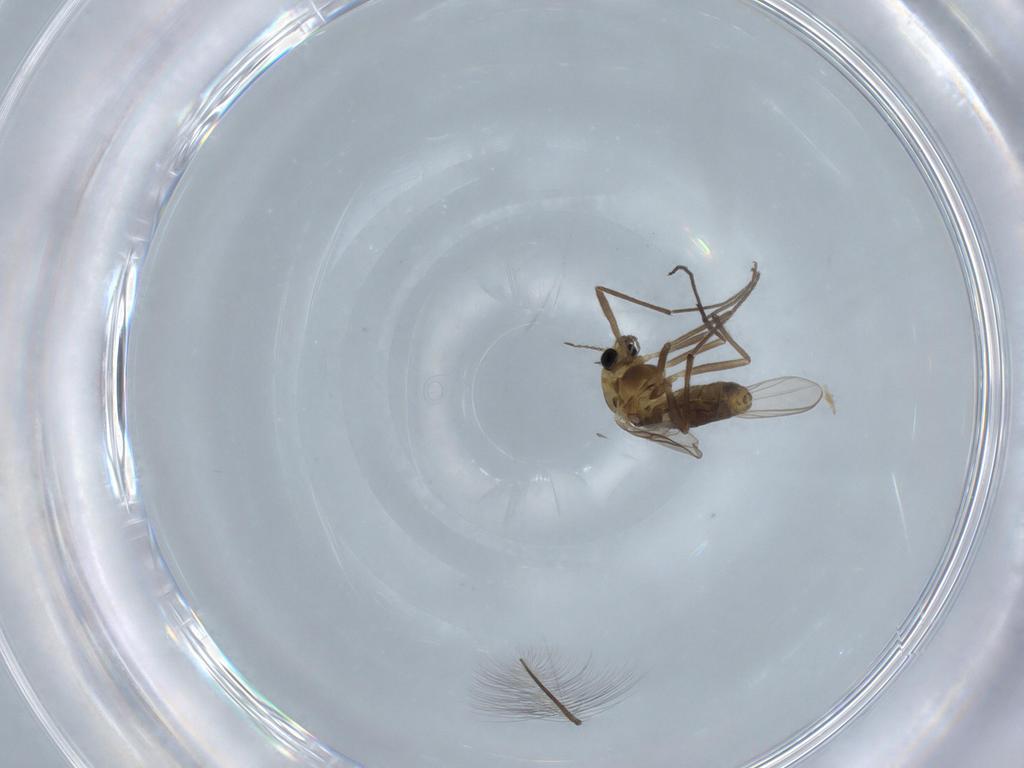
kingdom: Animalia
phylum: Arthropoda
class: Insecta
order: Diptera
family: Chironomidae
